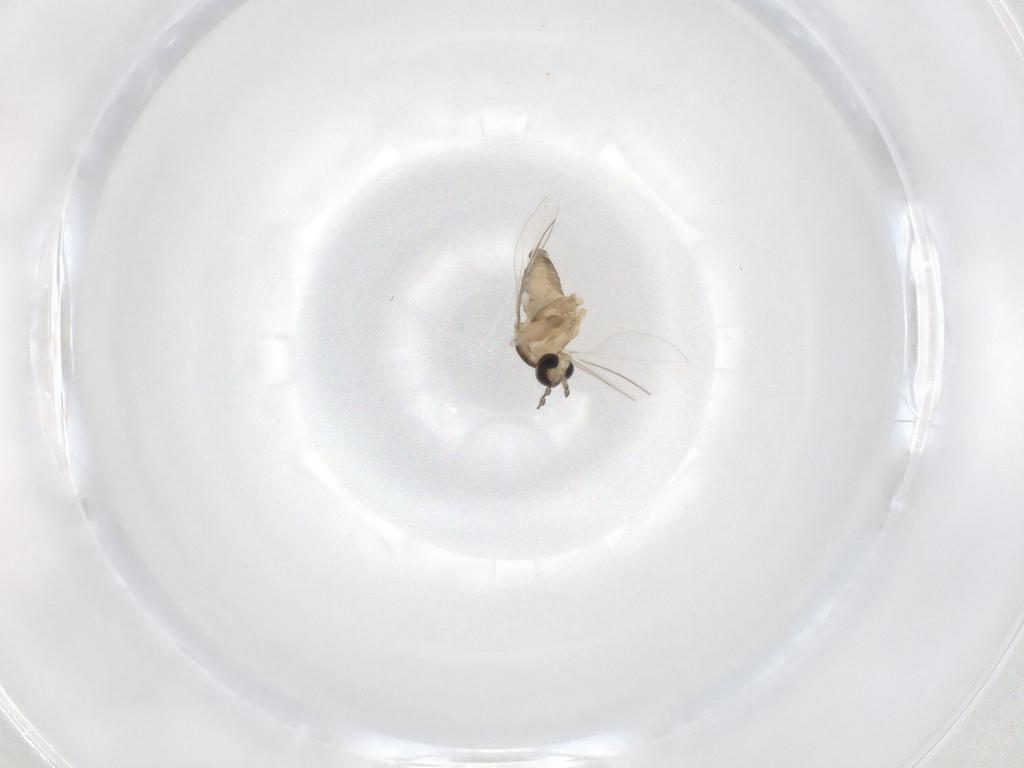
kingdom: Animalia
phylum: Arthropoda
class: Insecta
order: Diptera
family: Cecidomyiidae
